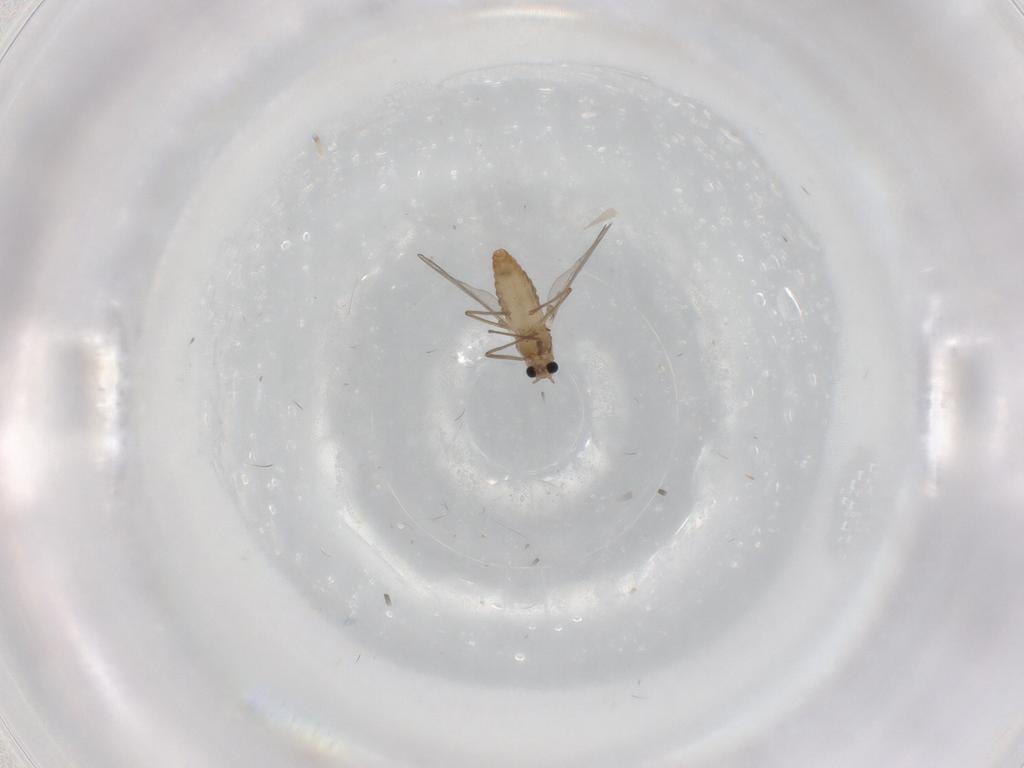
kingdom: Animalia
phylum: Arthropoda
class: Insecta
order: Diptera
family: Chironomidae
